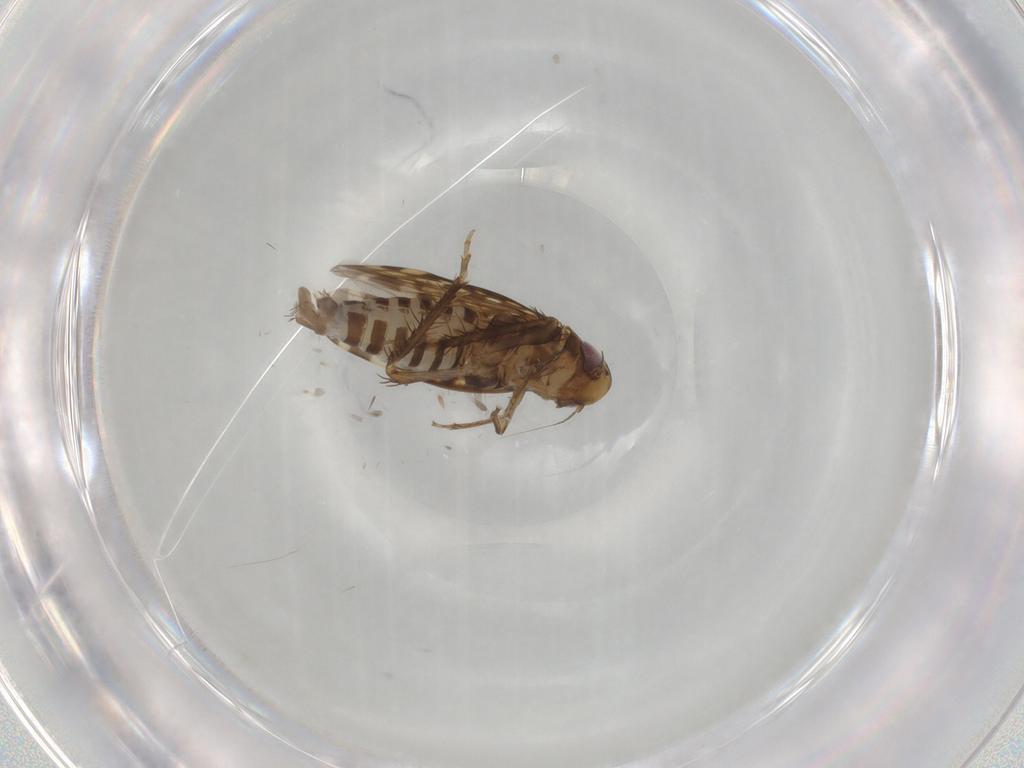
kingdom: Animalia
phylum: Arthropoda
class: Insecta
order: Hemiptera
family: Cicadellidae
